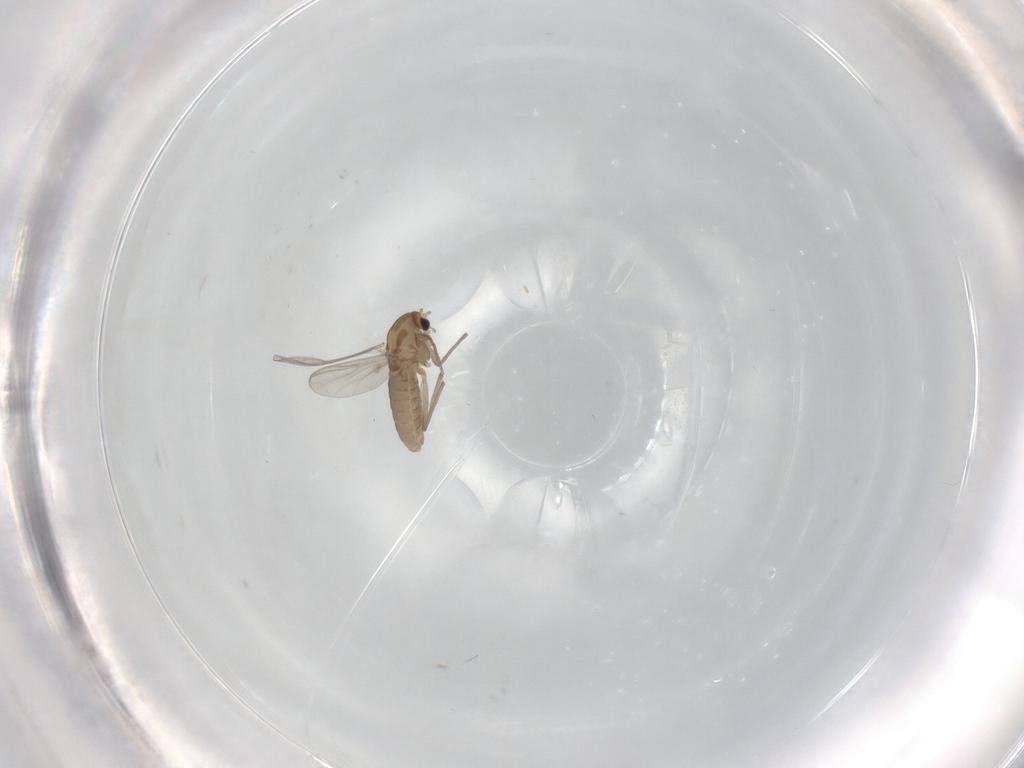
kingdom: Animalia
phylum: Arthropoda
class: Insecta
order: Diptera
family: Chironomidae
